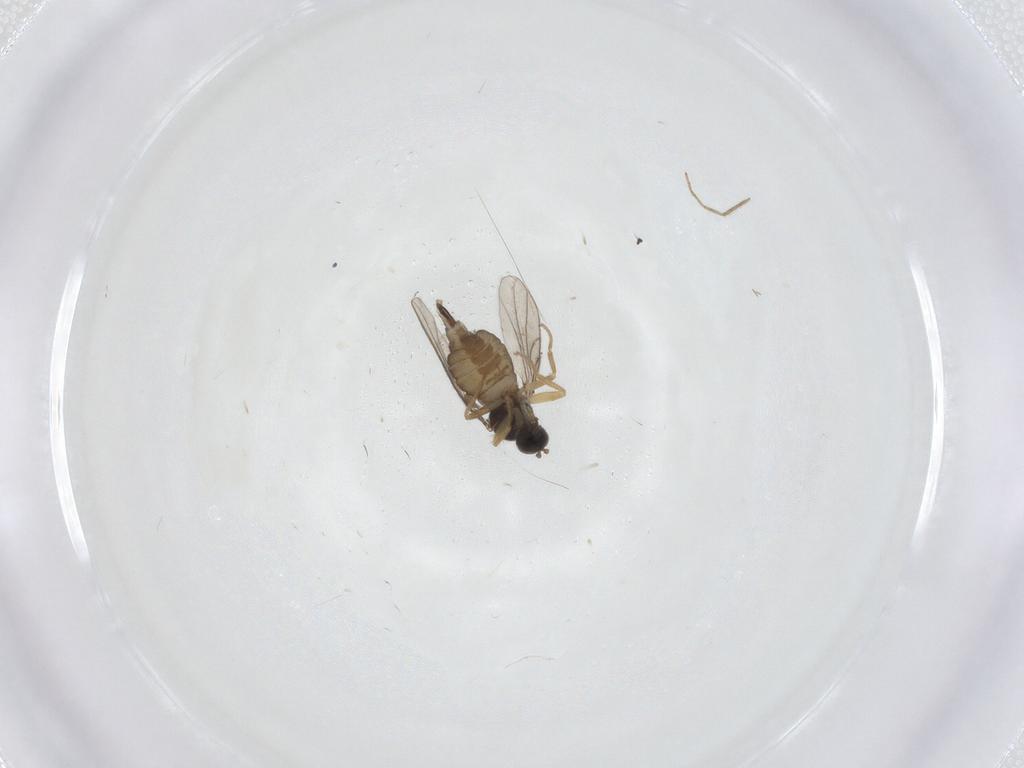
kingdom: Animalia
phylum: Arthropoda
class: Insecta
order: Diptera
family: Chironomidae
